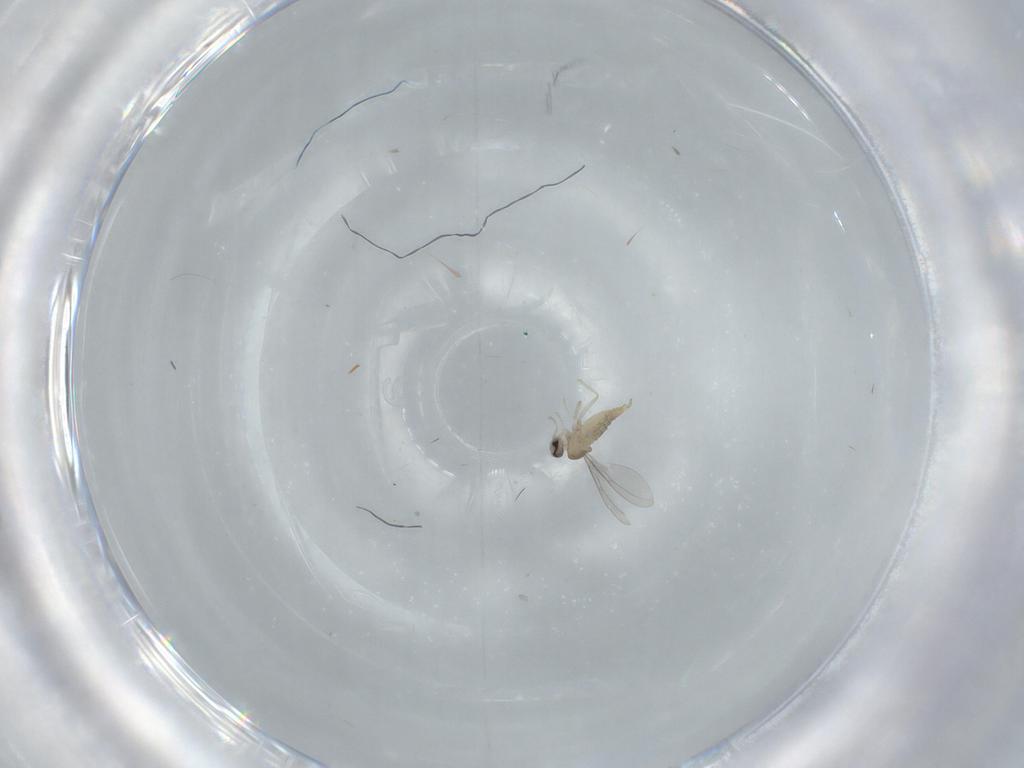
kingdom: Animalia
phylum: Arthropoda
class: Insecta
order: Diptera
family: Cecidomyiidae
